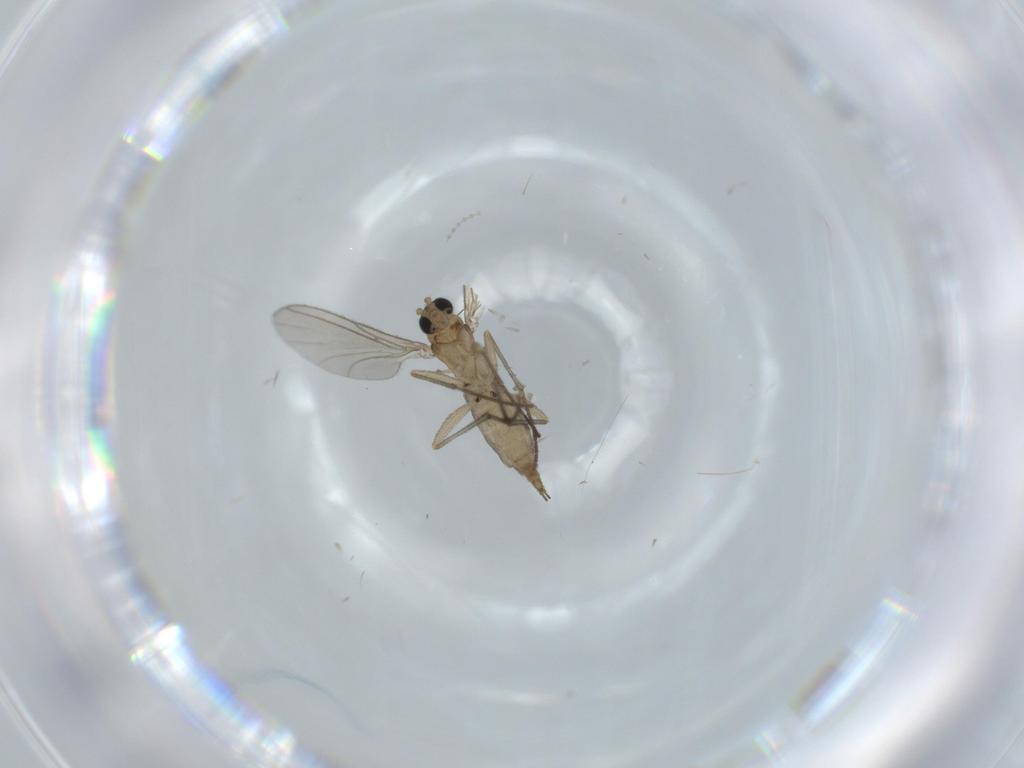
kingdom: Animalia
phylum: Arthropoda
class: Insecta
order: Diptera
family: Sciaridae
